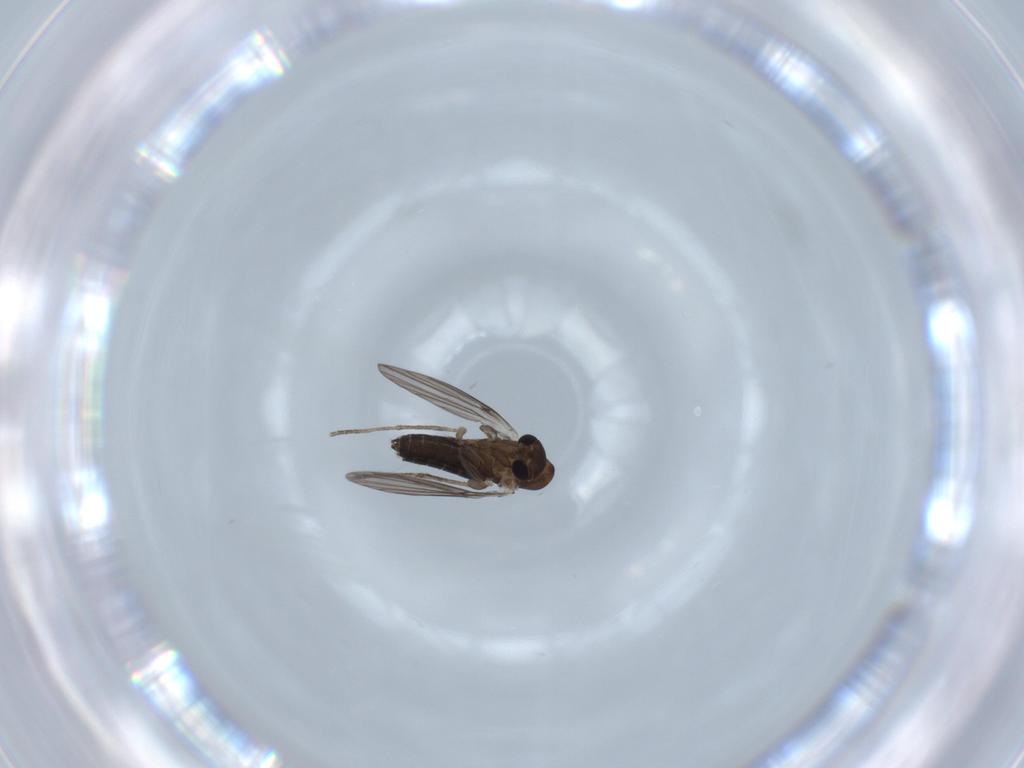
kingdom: Animalia
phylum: Arthropoda
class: Insecta
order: Diptera
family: Psychodidae
